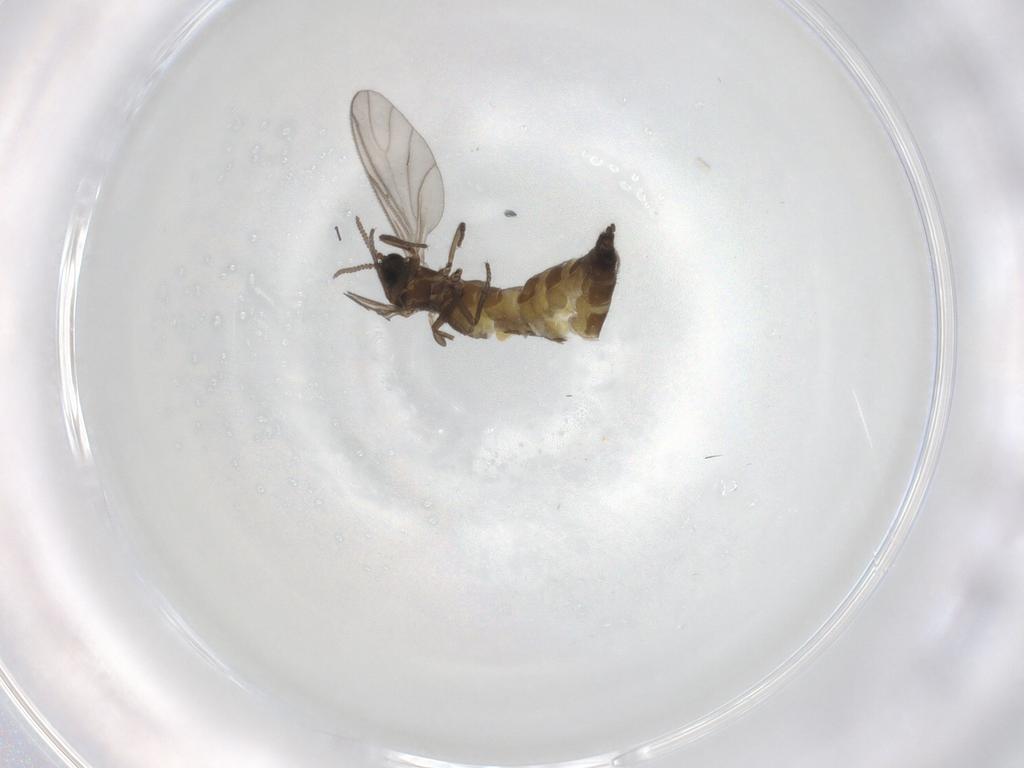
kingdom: Animalia
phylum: Arthropoda
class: Insecta
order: Diptera
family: Sciaridae
